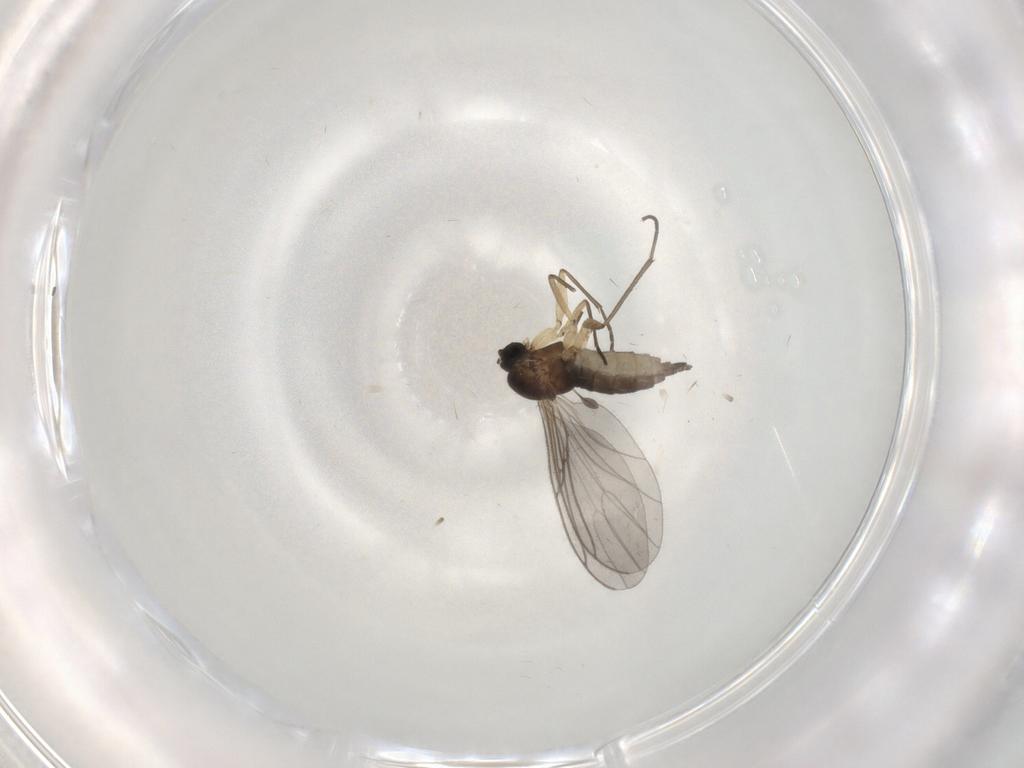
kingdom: Animalia
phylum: Arthropoda
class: Insecta
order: Diptera
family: Sciaridae
